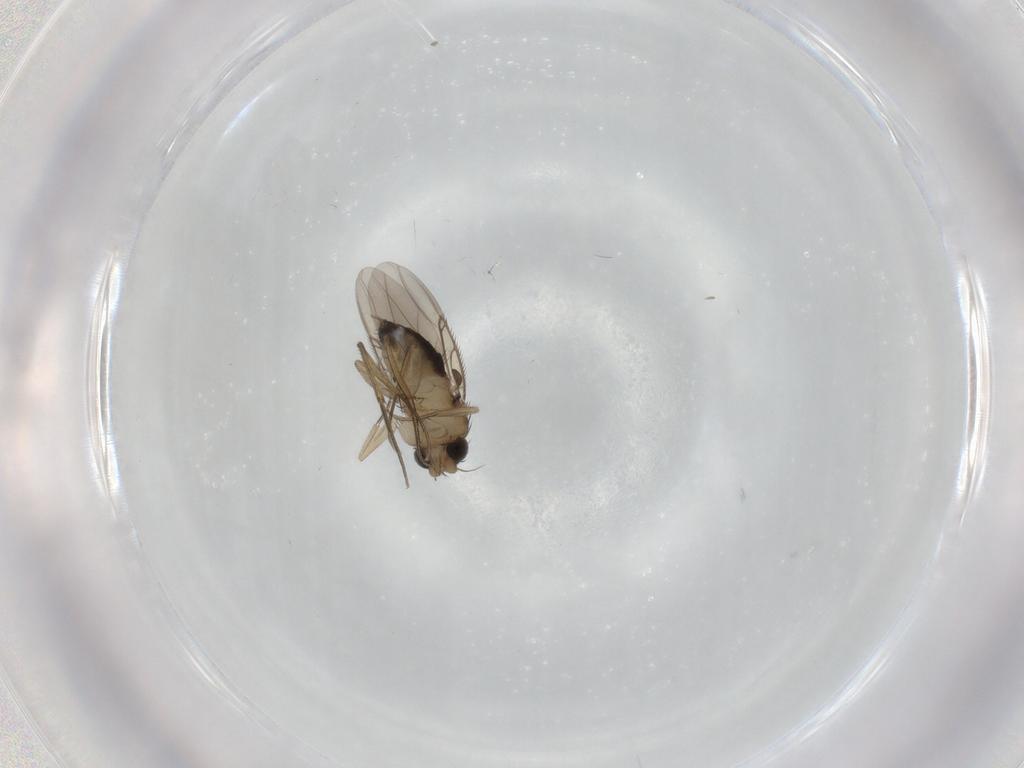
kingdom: Animalia
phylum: Arthropoda
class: Insecta
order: Diptera
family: Phoridae
